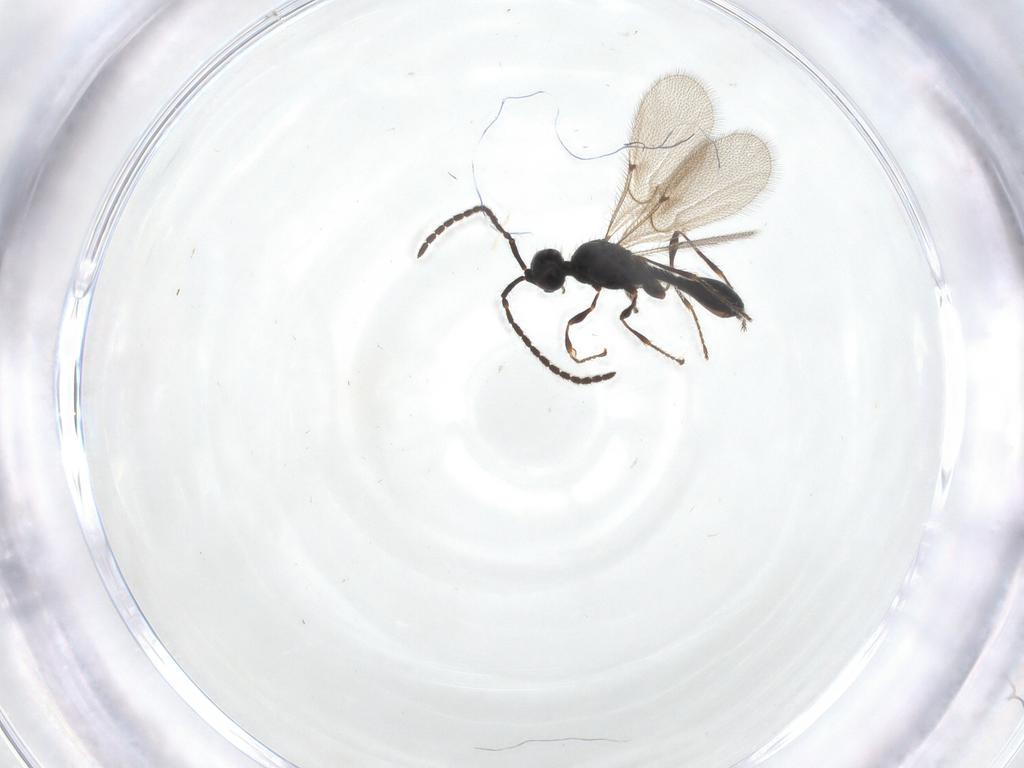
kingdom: Animalia
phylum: Arthropoda
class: Insecta
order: Hymenoptera
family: Diapriidae
